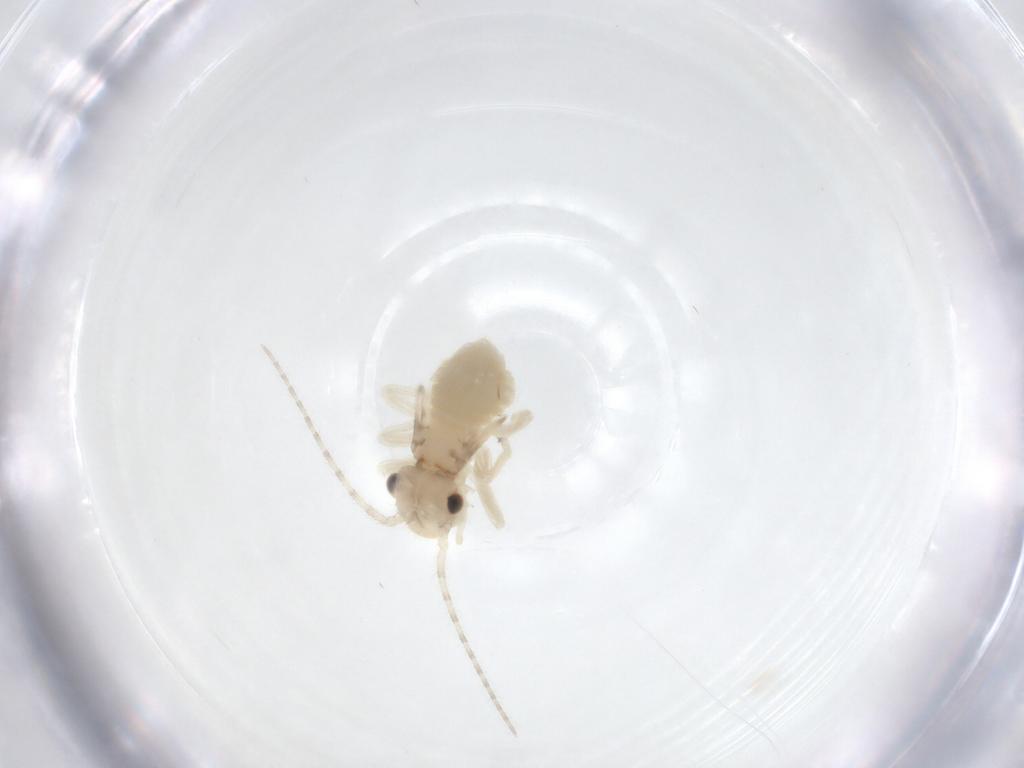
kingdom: Animalia
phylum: Arthropoda
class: Insecta
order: Psocodea
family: Amphipsocidae
